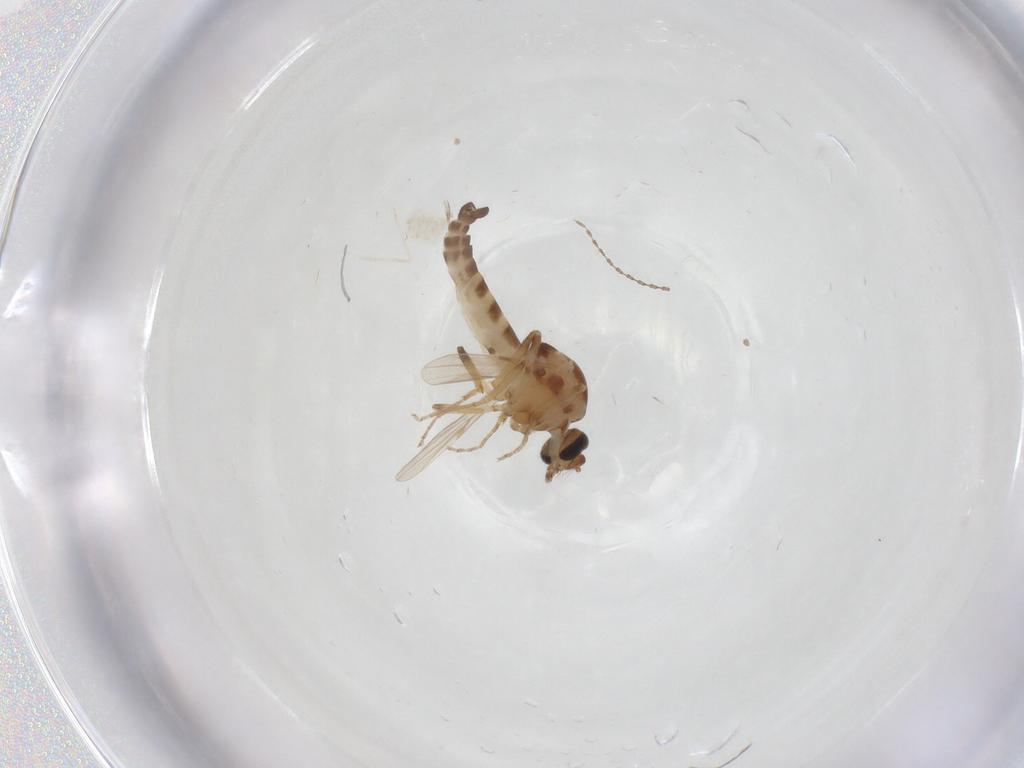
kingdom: Animalia
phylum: Arthropoda
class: Insecta
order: Diptera
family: Ceratopogonidae
